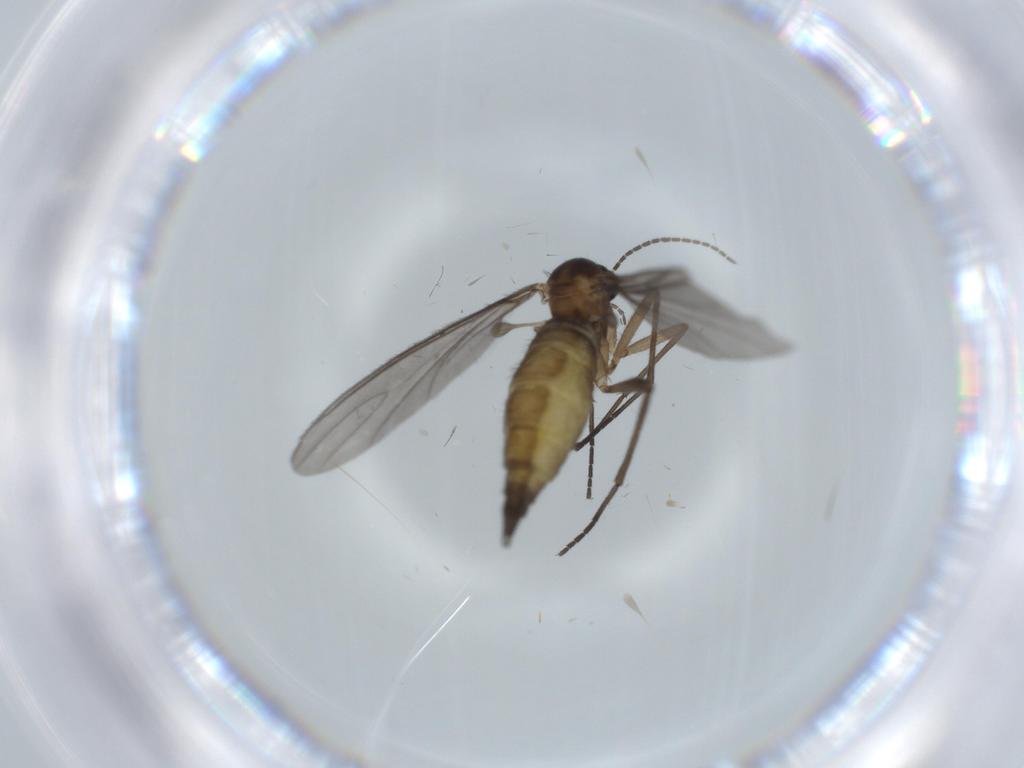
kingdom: Animalia
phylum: Arthropoda
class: Insecta
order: Diptera
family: Sciaridae
